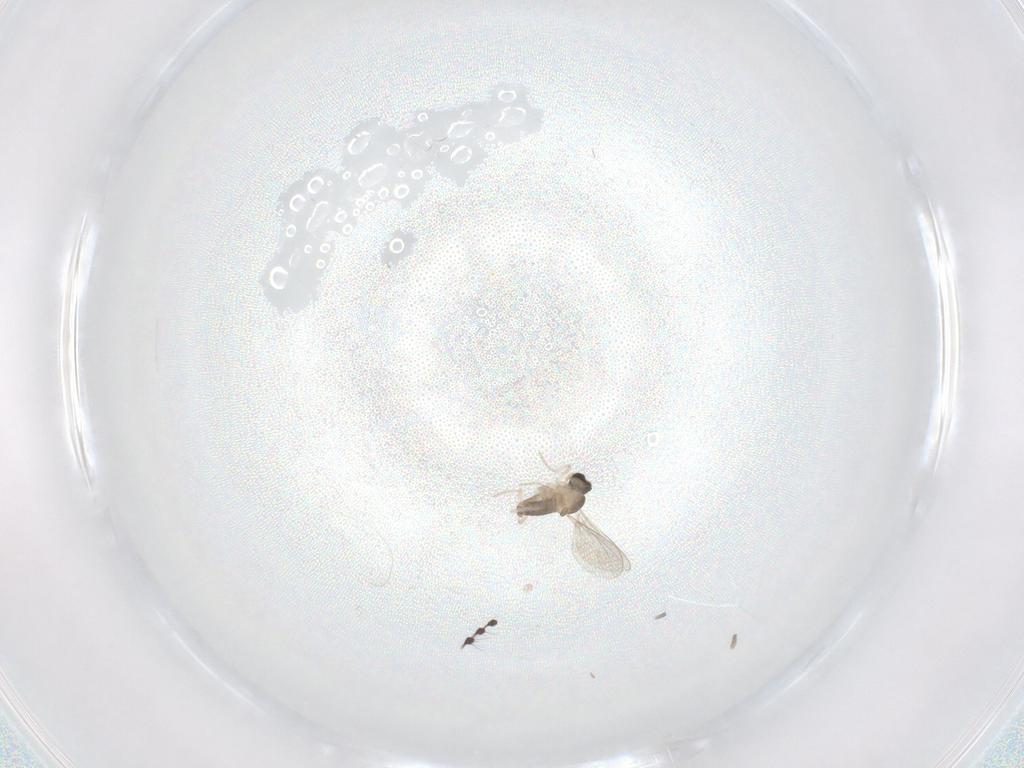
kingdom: Animalia
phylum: Arthropoda
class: Insecta
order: Diptera
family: Cecidomyiidae
